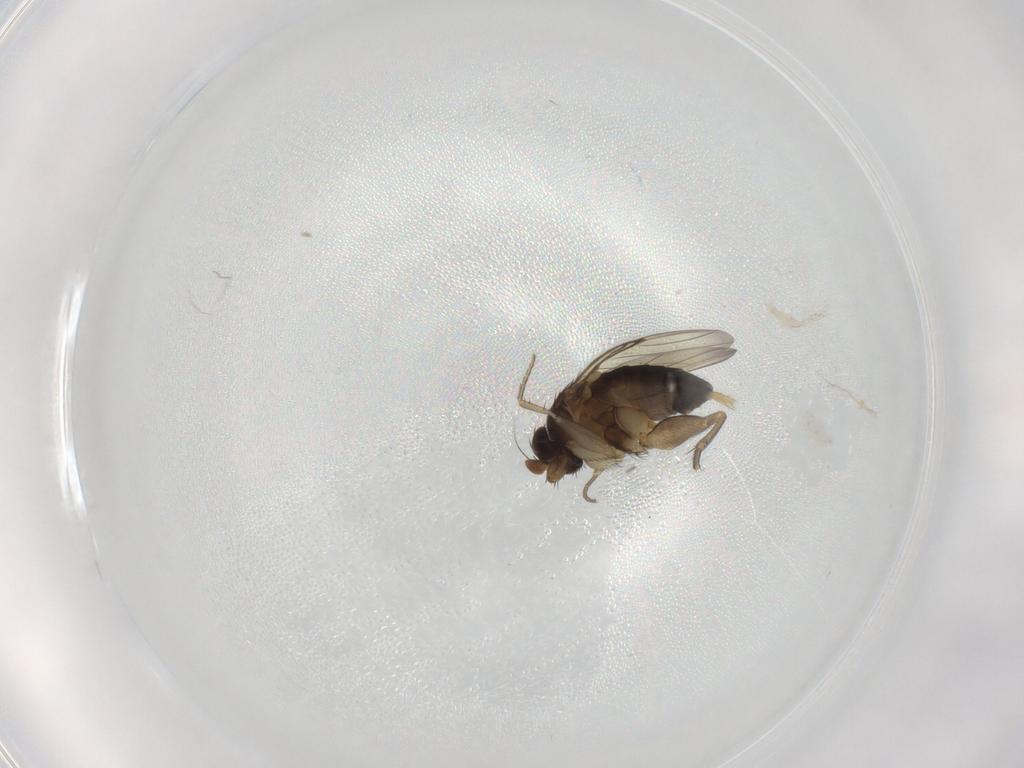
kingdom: Animalia
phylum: Arthropoda
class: Insecta
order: Diptera
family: Phoridae
